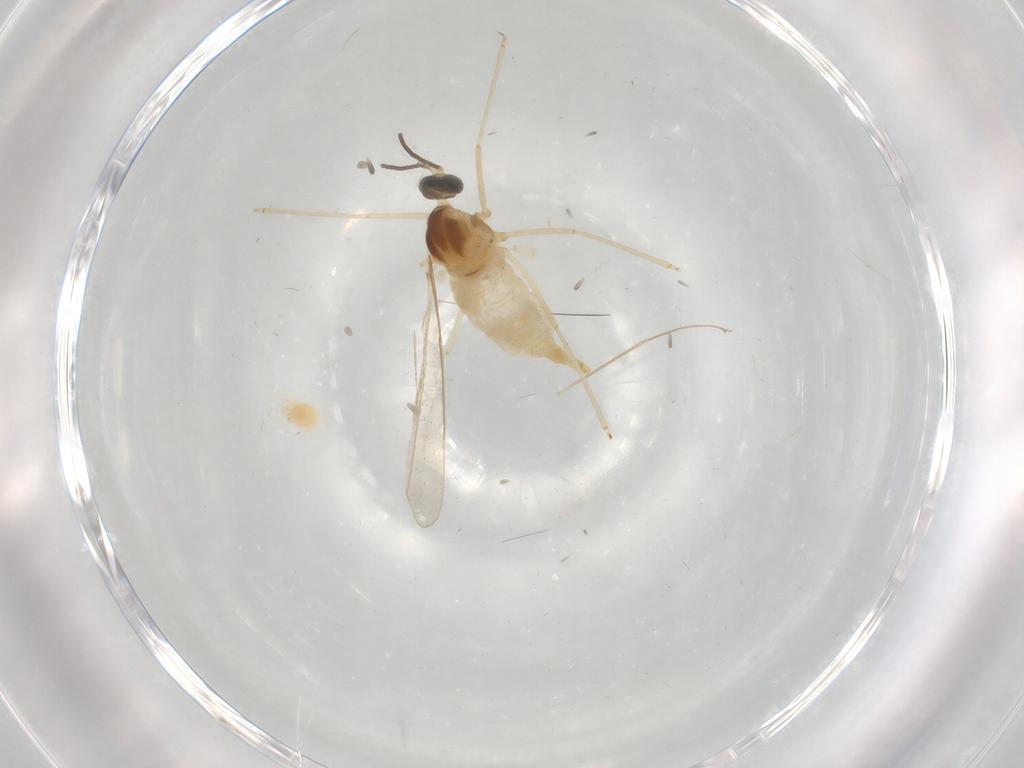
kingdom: Animalia
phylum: Arthropoda
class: Insecta
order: Diptera
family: Cecidomyiidae
